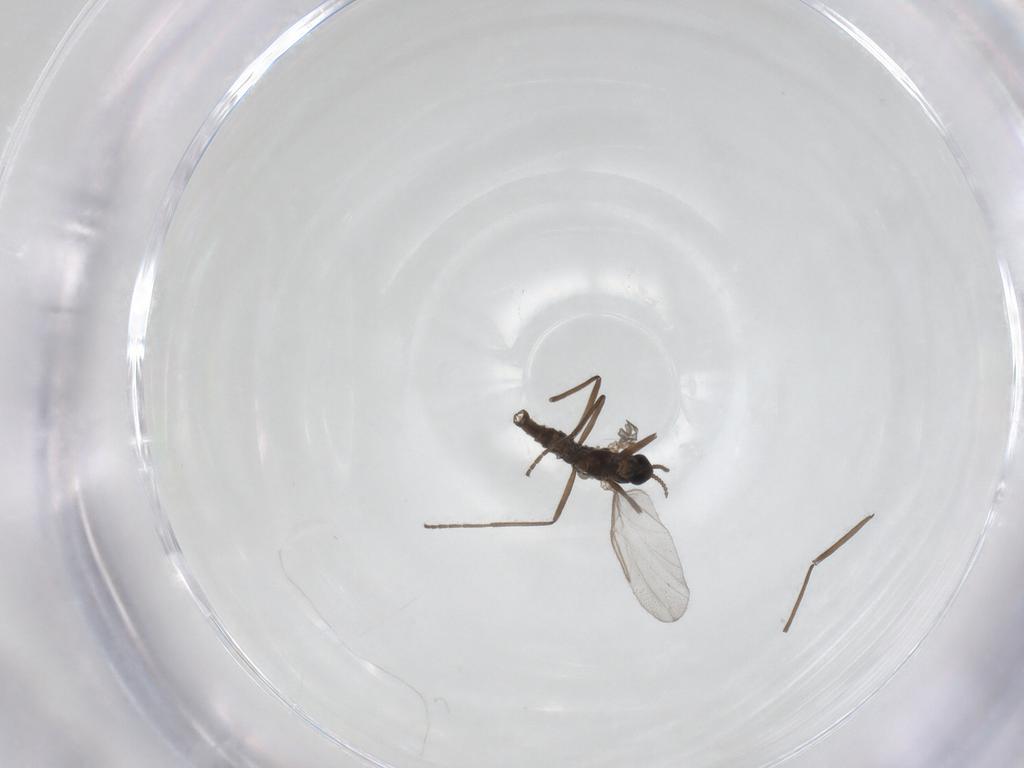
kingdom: Animalia
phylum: Arthropoda
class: Insecta
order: Diptera
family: Cecidomyiidae
